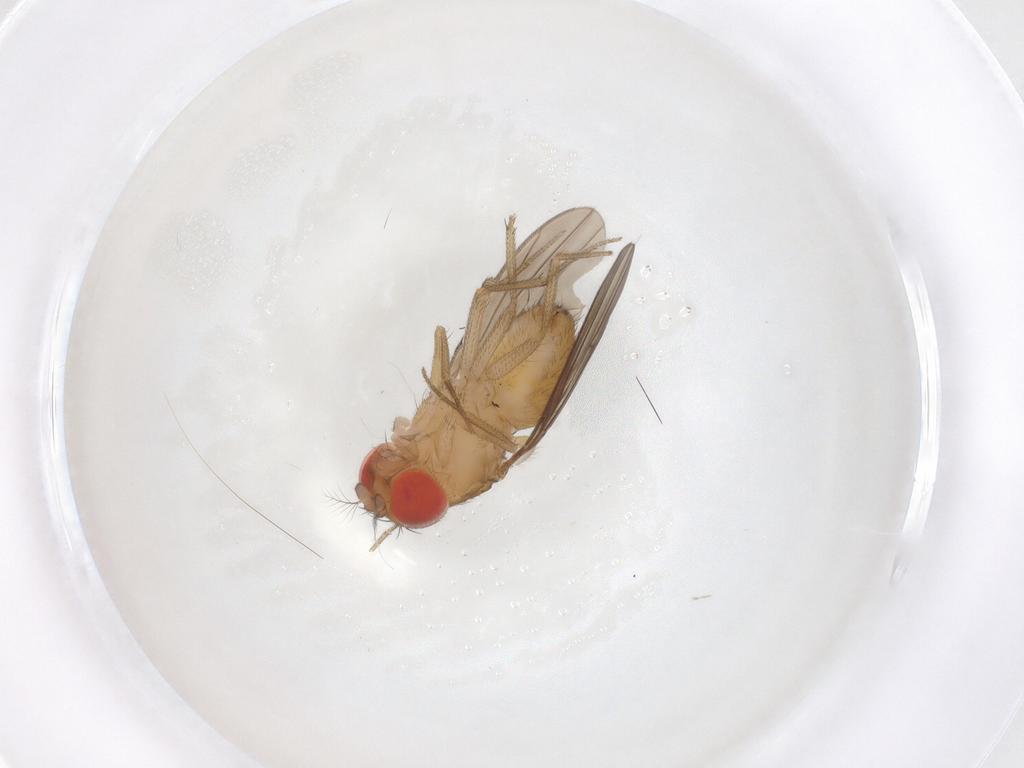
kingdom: Animalia
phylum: Arthropoda
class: Insecta
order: Diptera
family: Drosophilidae
